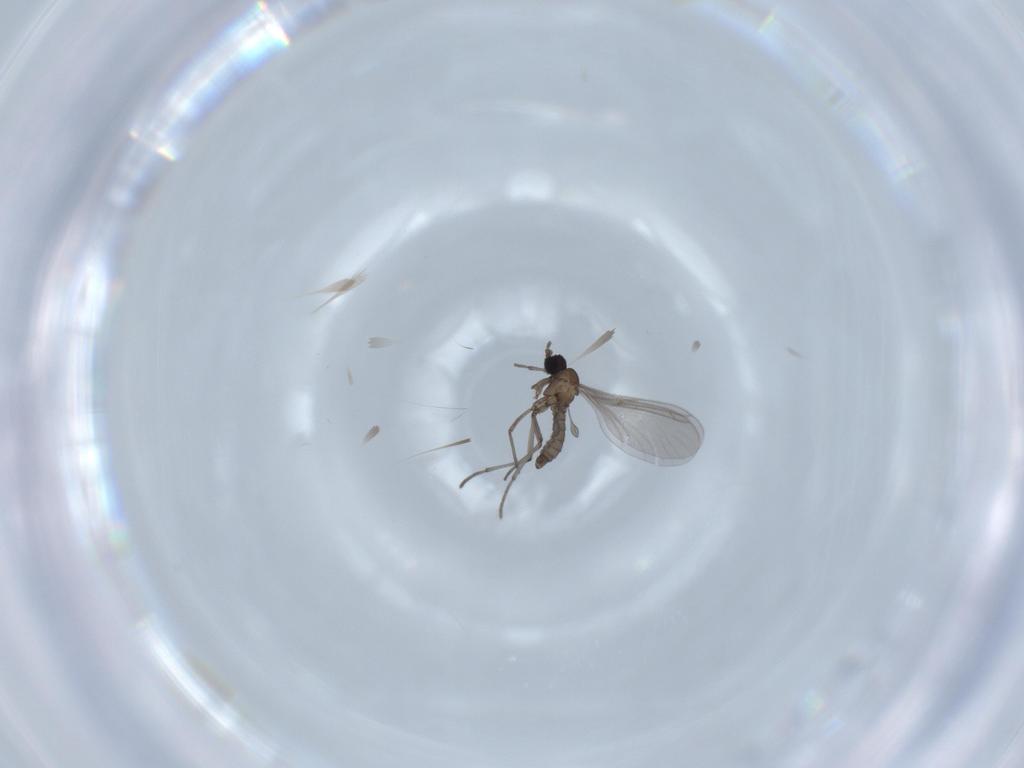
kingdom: Animalia
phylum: Arthropoda
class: Insecta
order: Diptera
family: Sciaridae
